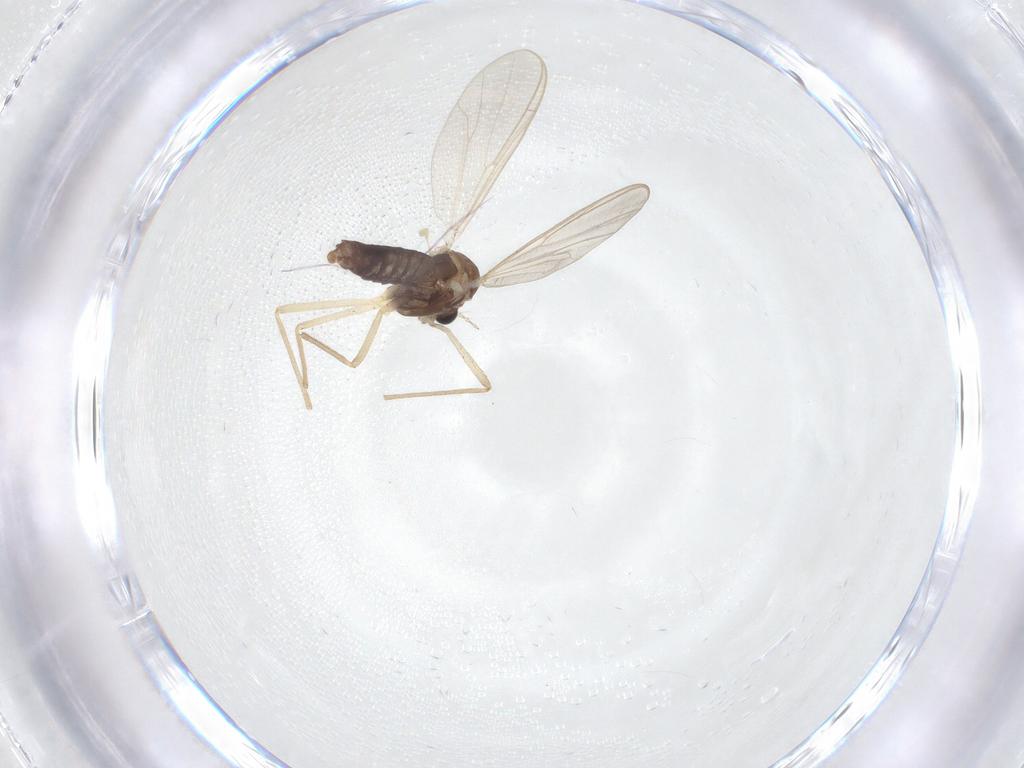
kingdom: Animalia
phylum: Arthropoda
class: Insecta
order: Diptera
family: Chironomidae
